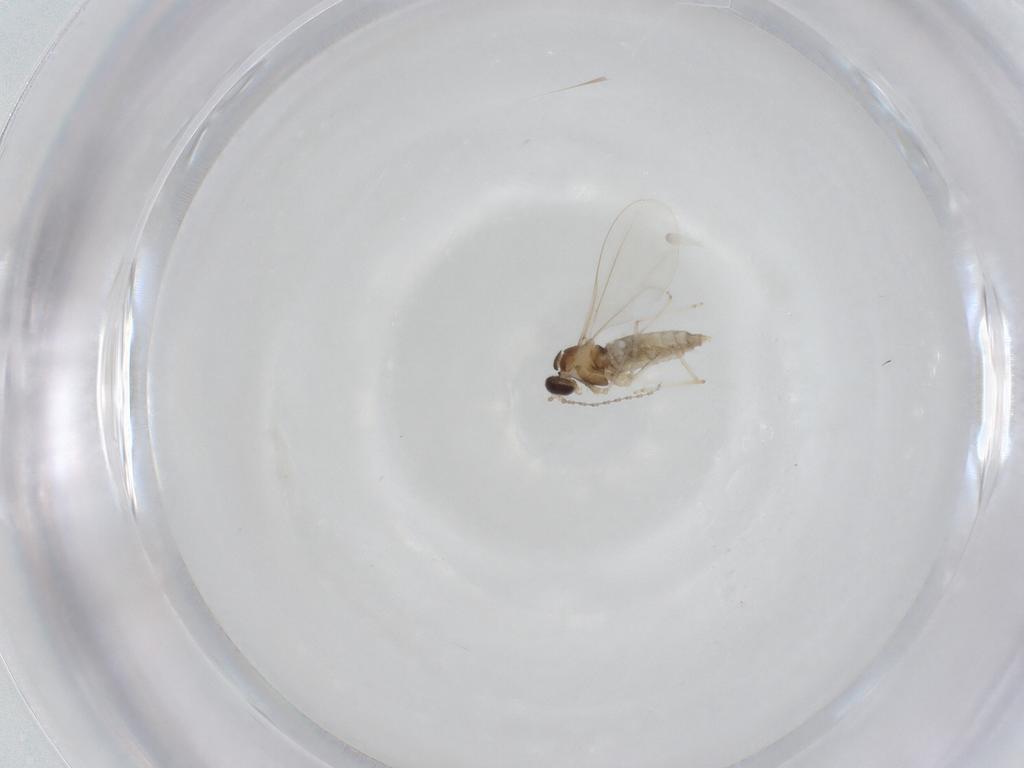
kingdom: Animalia
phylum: Arthropoda
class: Insecta
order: Diptera
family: Cecidomyiidae
